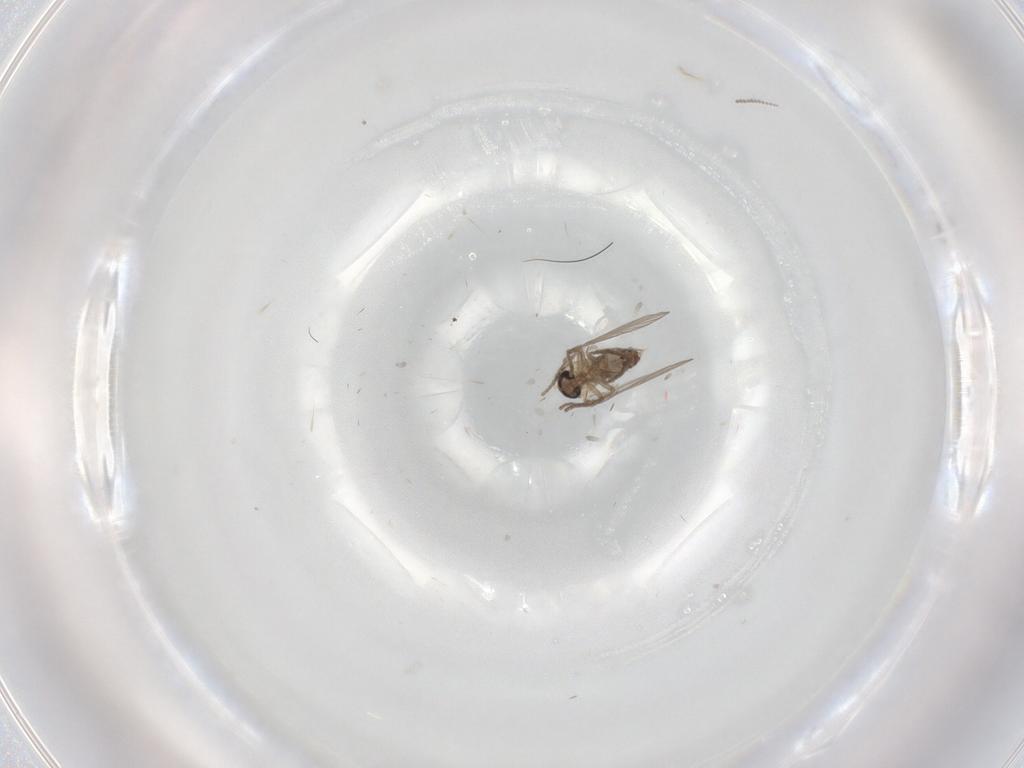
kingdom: Animalia
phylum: Arthropoda
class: Insecta
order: Diptera
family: Psychodidae
